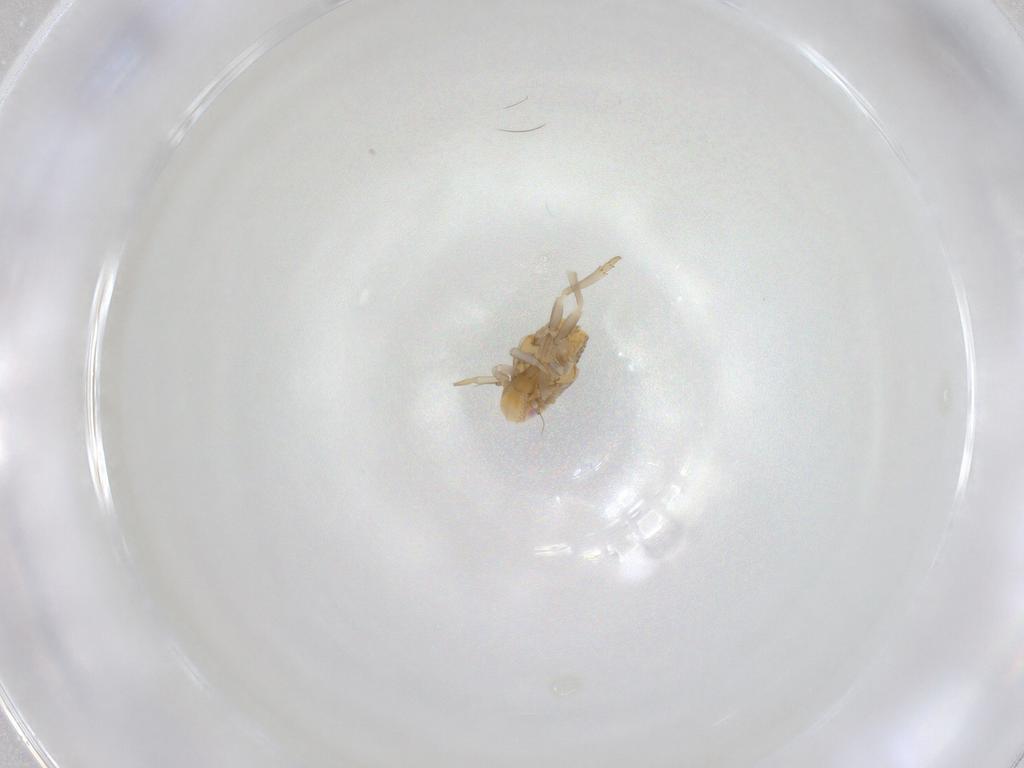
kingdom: Animalia
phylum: Arthropoda
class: Insecta
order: Hemiptera
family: Flatidae
